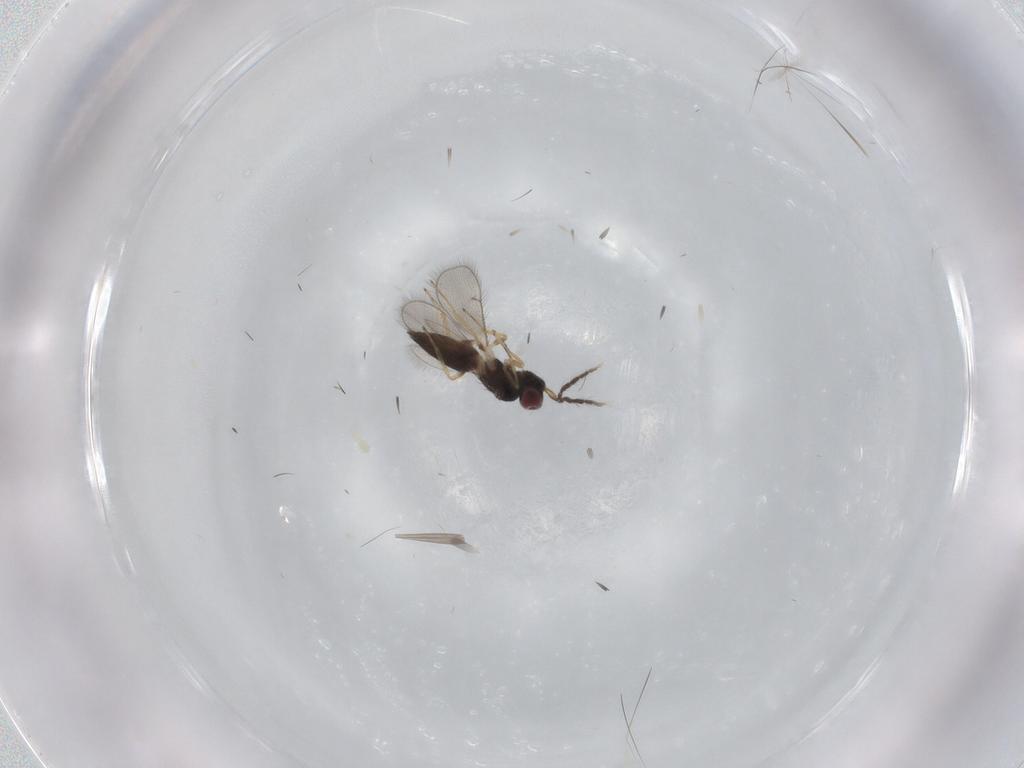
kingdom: Animalia
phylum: Arthropoda
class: Insecta
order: Hymenoptera
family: Eulophidae
